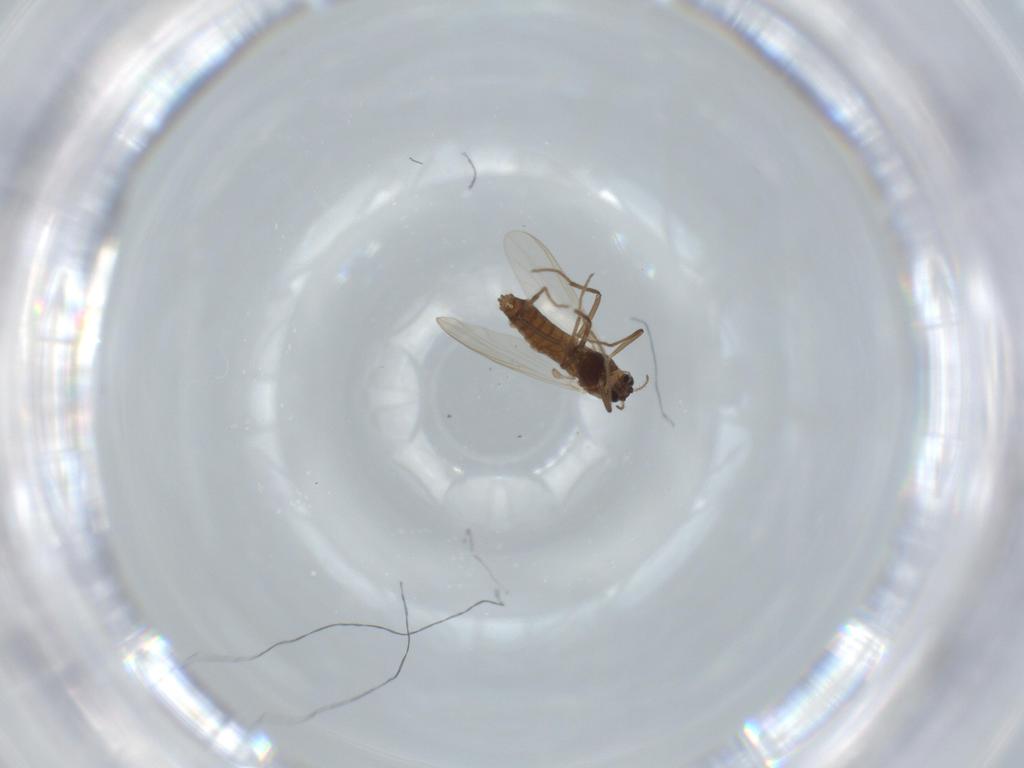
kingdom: Animalia
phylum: Arthropoda
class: Insecta
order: Diptera
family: Chironomidae
